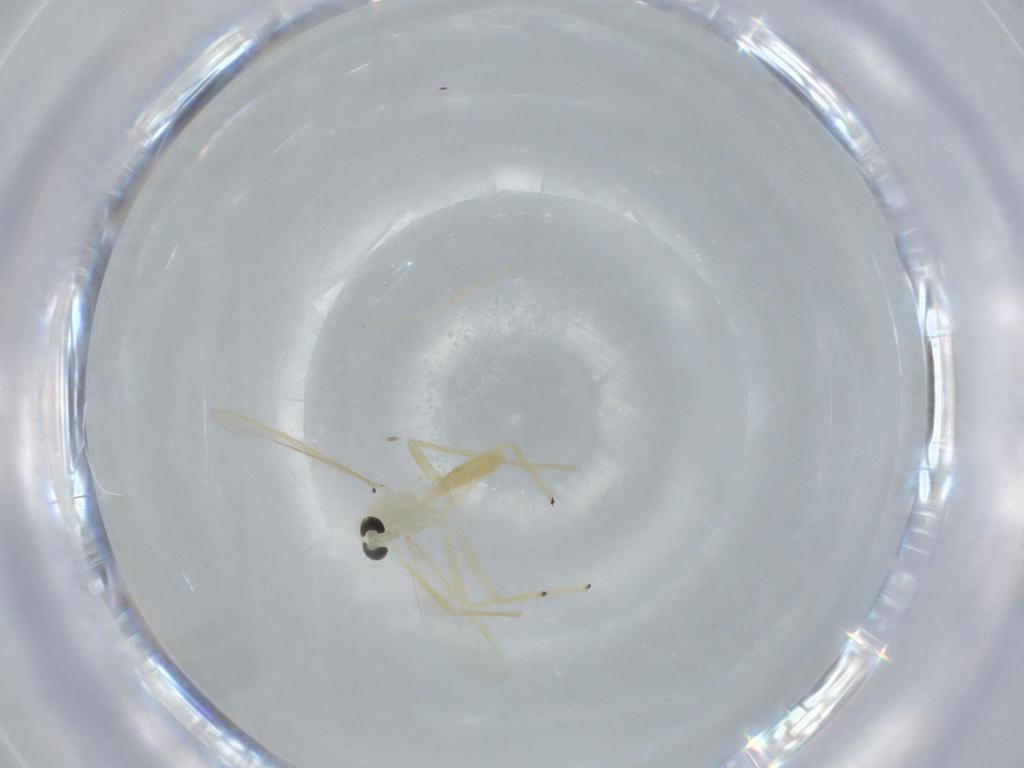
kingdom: Animalia
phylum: Arthropoda
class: Insecta
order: Diptera
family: Chironomidae
